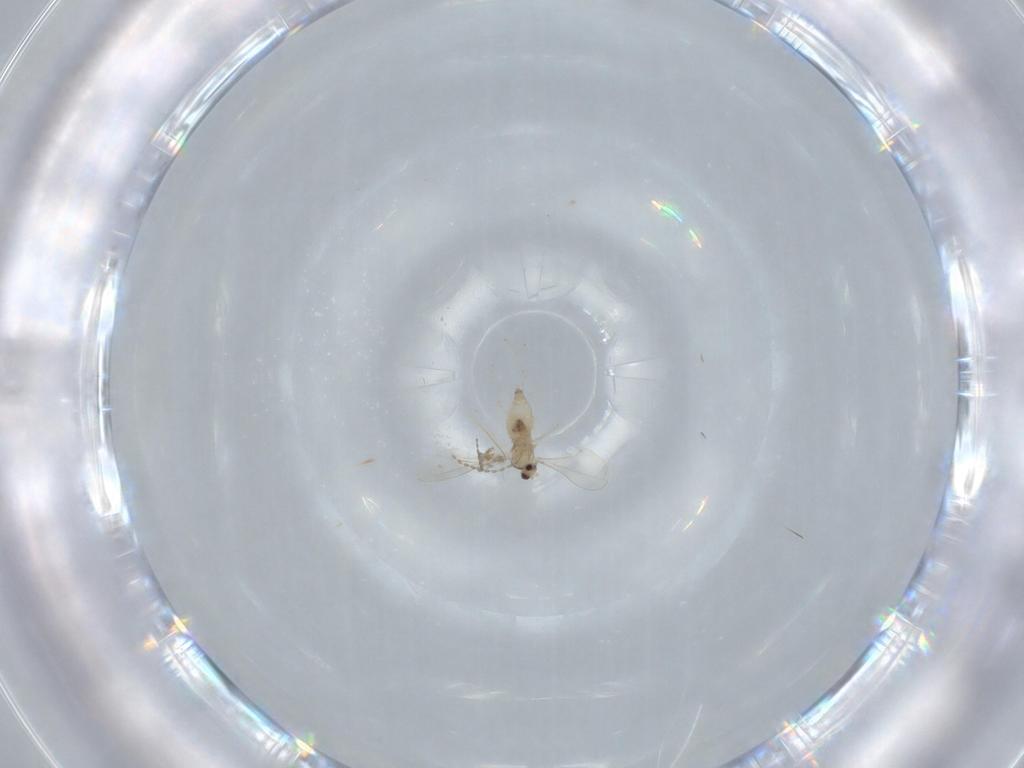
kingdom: Animalia
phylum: Arthropoda
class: Insecta
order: Diptera
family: Cecidomyiidae
